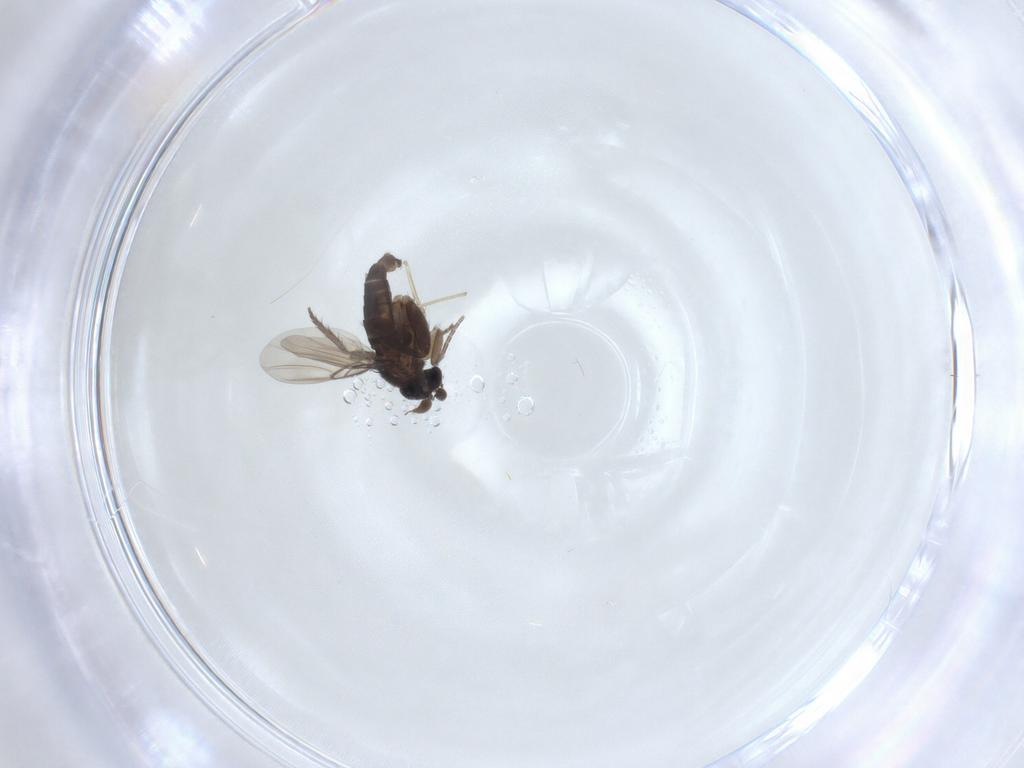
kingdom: Animalia
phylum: Arthropoda
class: Insecta
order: Diptera
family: Phoridae
